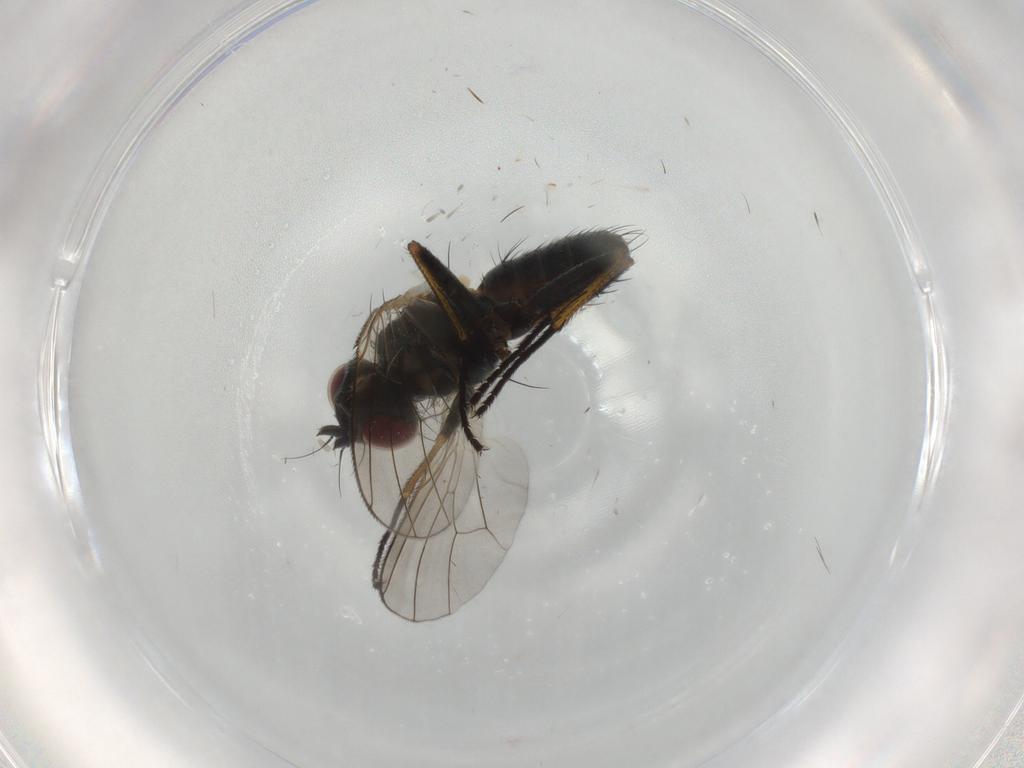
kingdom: Animalia
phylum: Arthropoda
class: Insecta
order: Diptera
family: Muscidae
